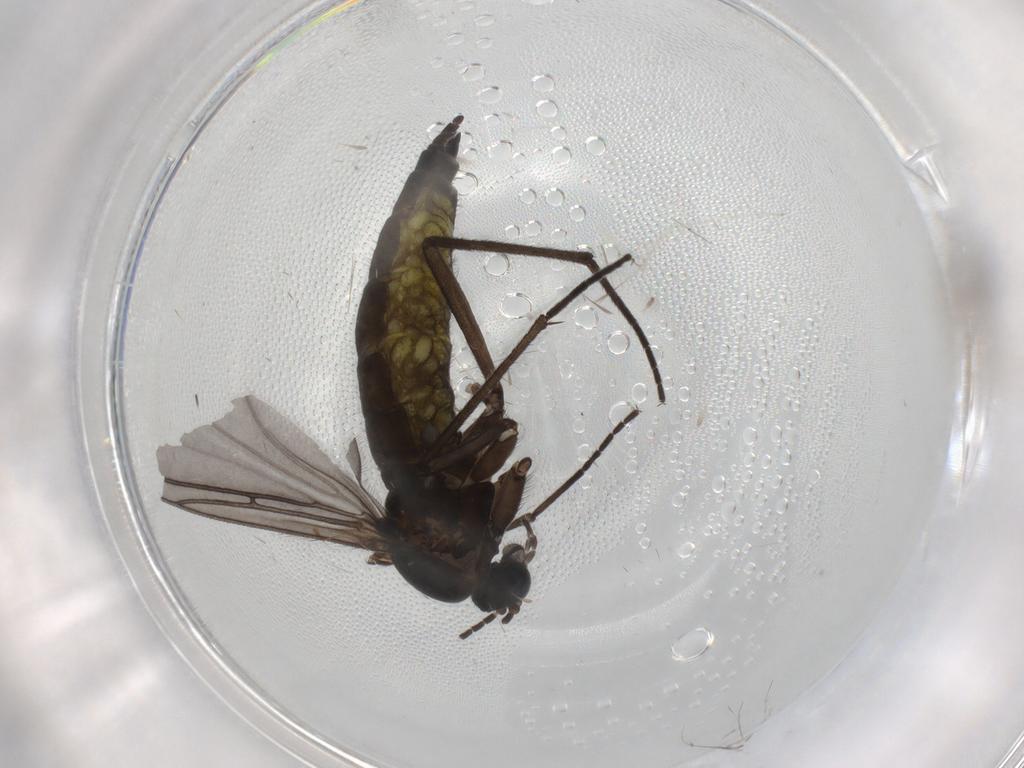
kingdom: Animalia
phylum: Arthropoda
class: Insecta
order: Diptera
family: Sciaridae
